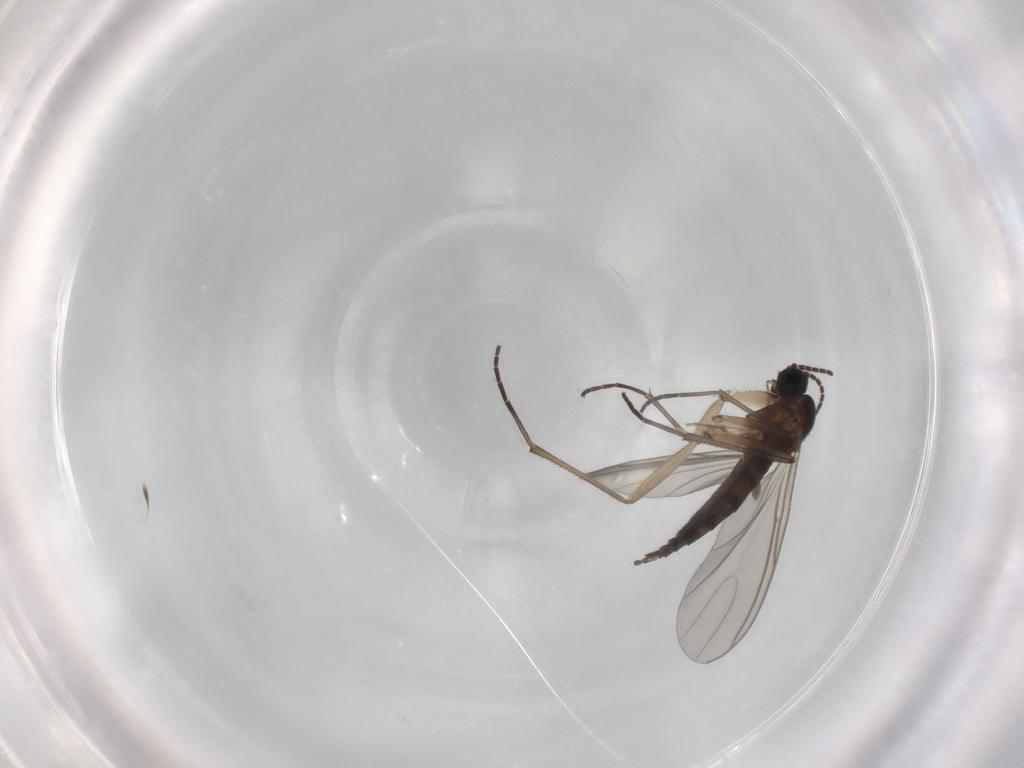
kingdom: Animalia
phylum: Arthropoda
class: Insecta
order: Diptera
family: Sciaridae
